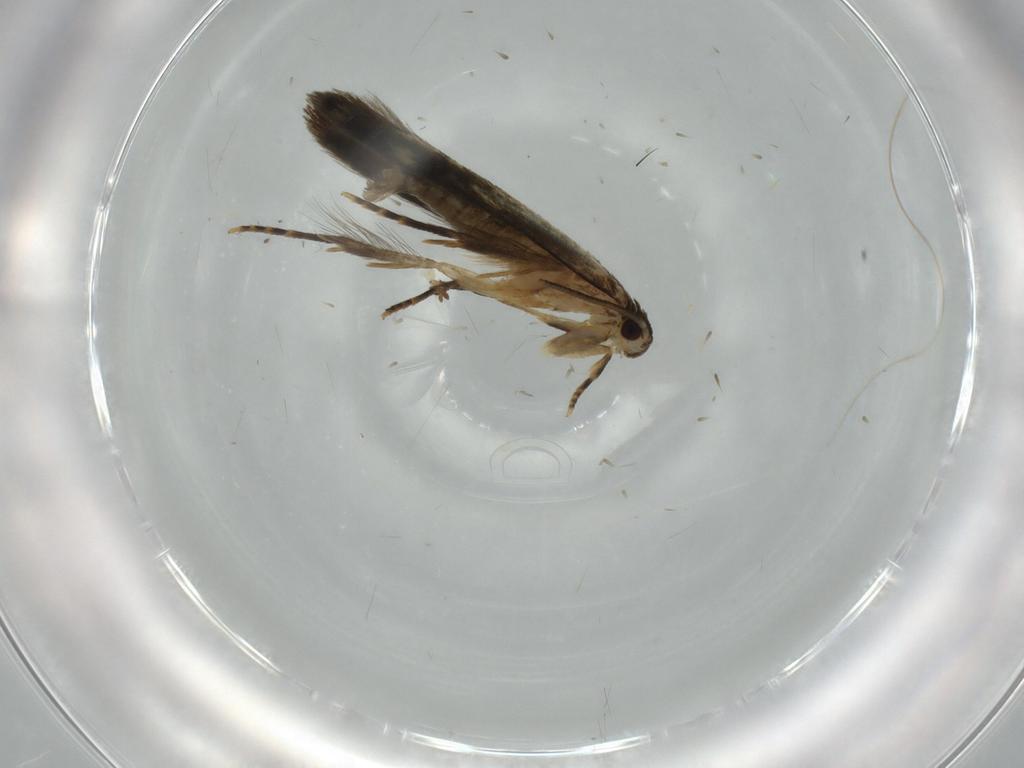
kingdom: Animalia
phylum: Arthropoda
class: Insecta
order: Lepidoptera
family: Tineidae
